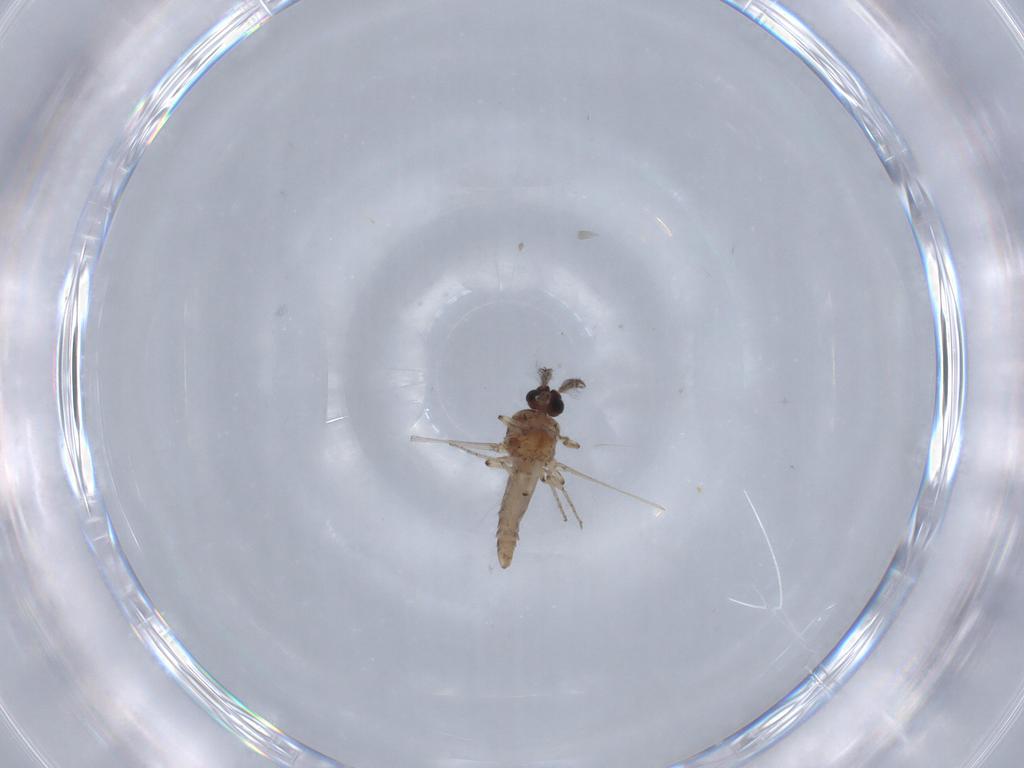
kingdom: Animalia
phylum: Arthropoda
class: Insecta
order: Diptera
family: Ceratopogonidae
